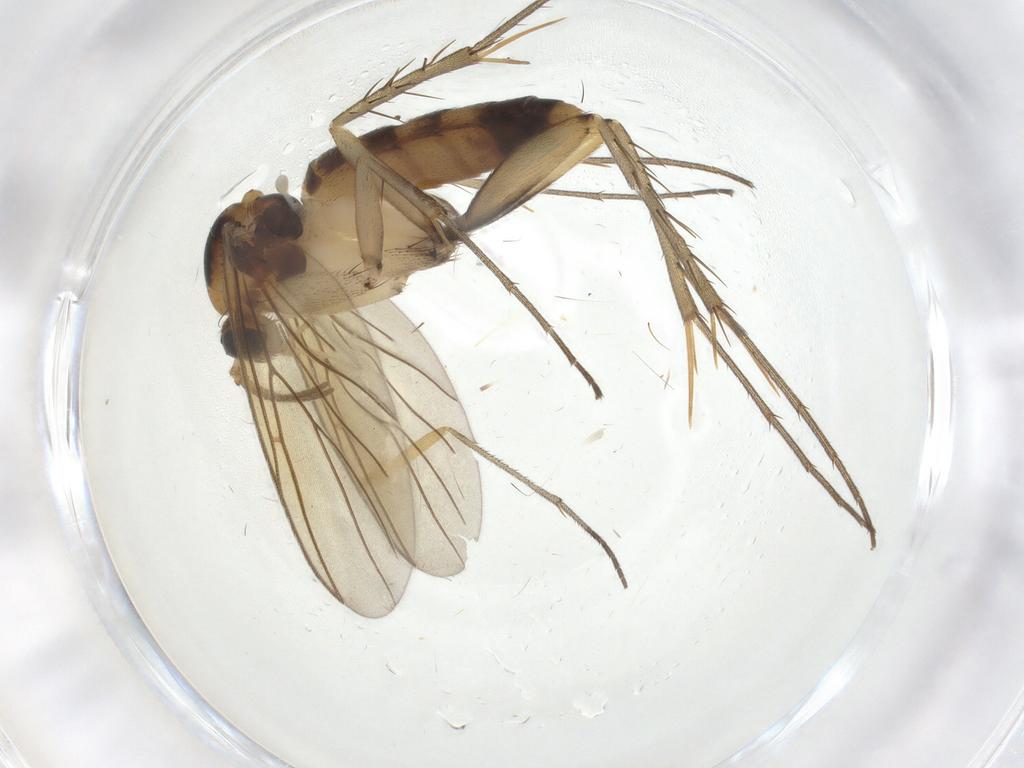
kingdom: Animalia
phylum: Arthropoda
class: Insecta
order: Diptera
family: Mycetophilidae
